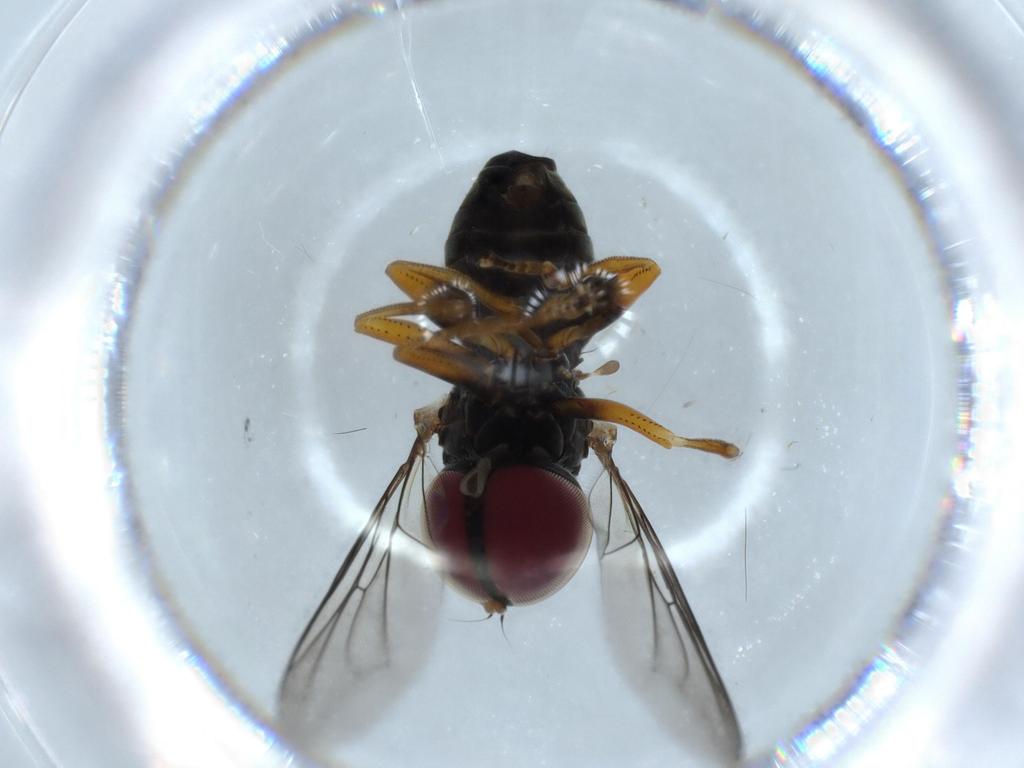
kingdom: Animalia
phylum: Arthropoda
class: Insecta
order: Diptera
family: Pipunculidae
